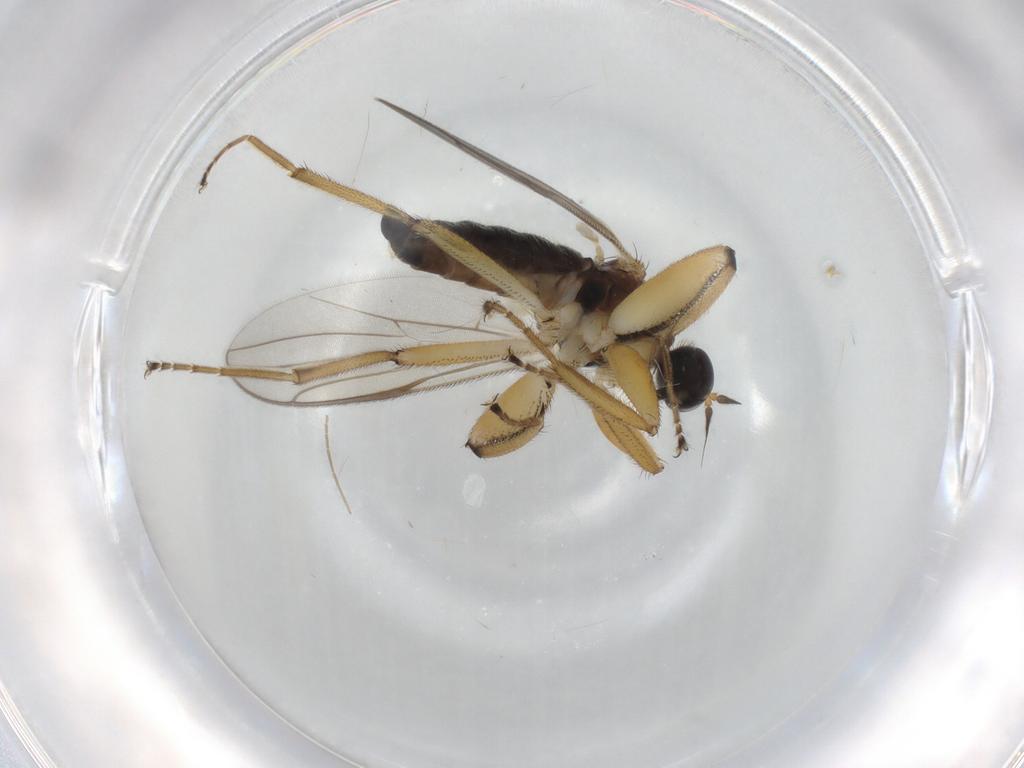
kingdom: Animalia
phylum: Arthropoda
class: Insecta
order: Diptera
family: Hybotidae
